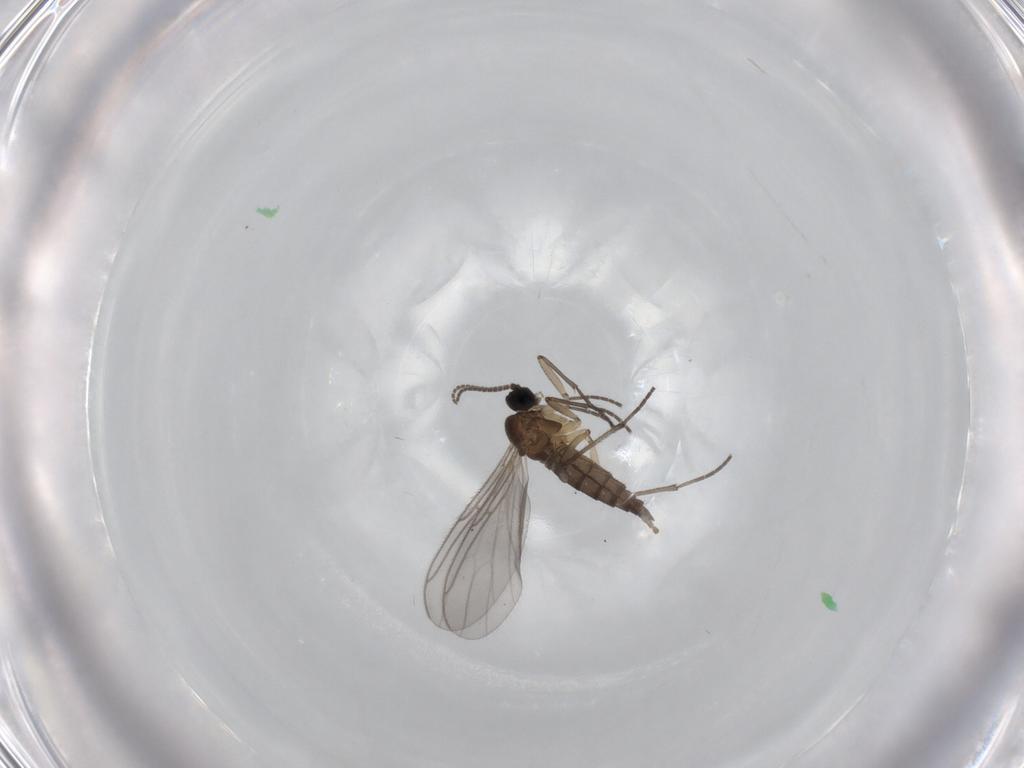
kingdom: Animalia
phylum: Arthropoda
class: Insecta
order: Diptera
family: Sciaridae
